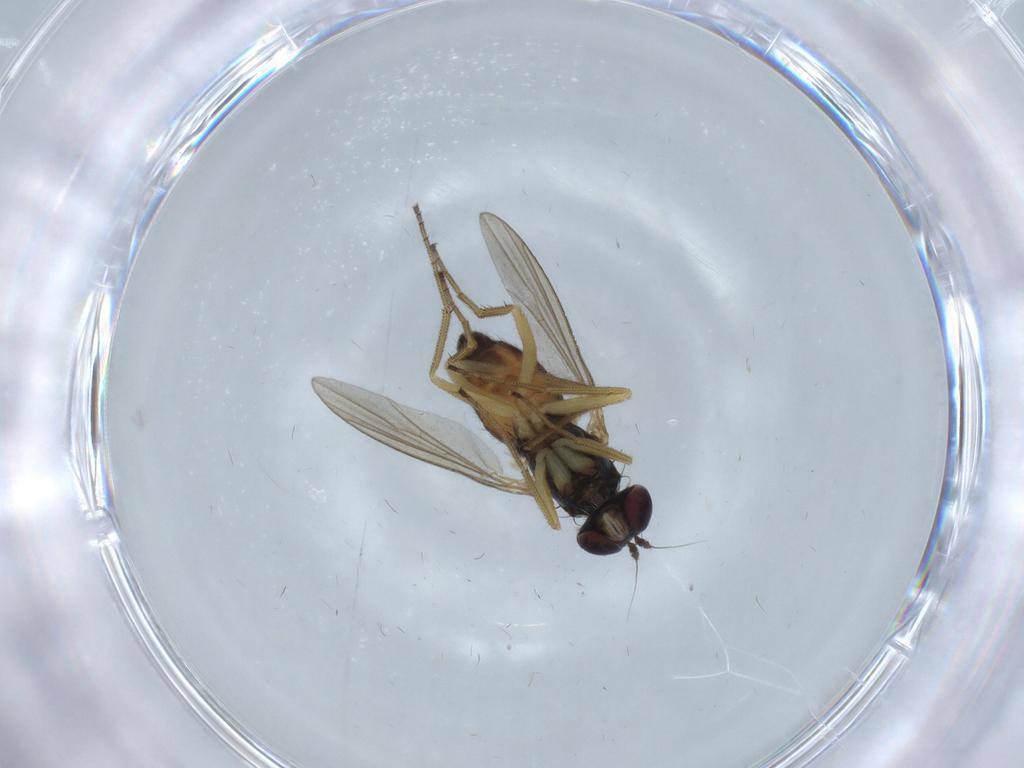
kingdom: Animalia
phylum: Arthropoda
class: Insecta
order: Diptera
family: Dolichopodidae
